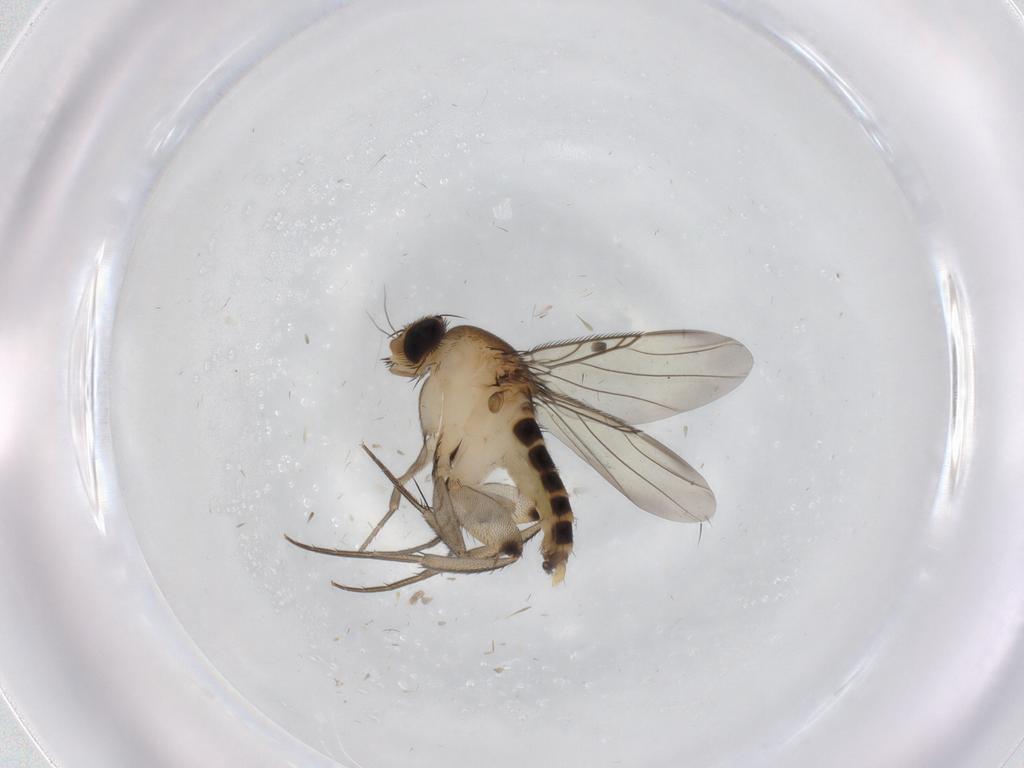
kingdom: Animalia
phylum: Arthropoda
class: Insecta
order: Diptera
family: Phoridae
